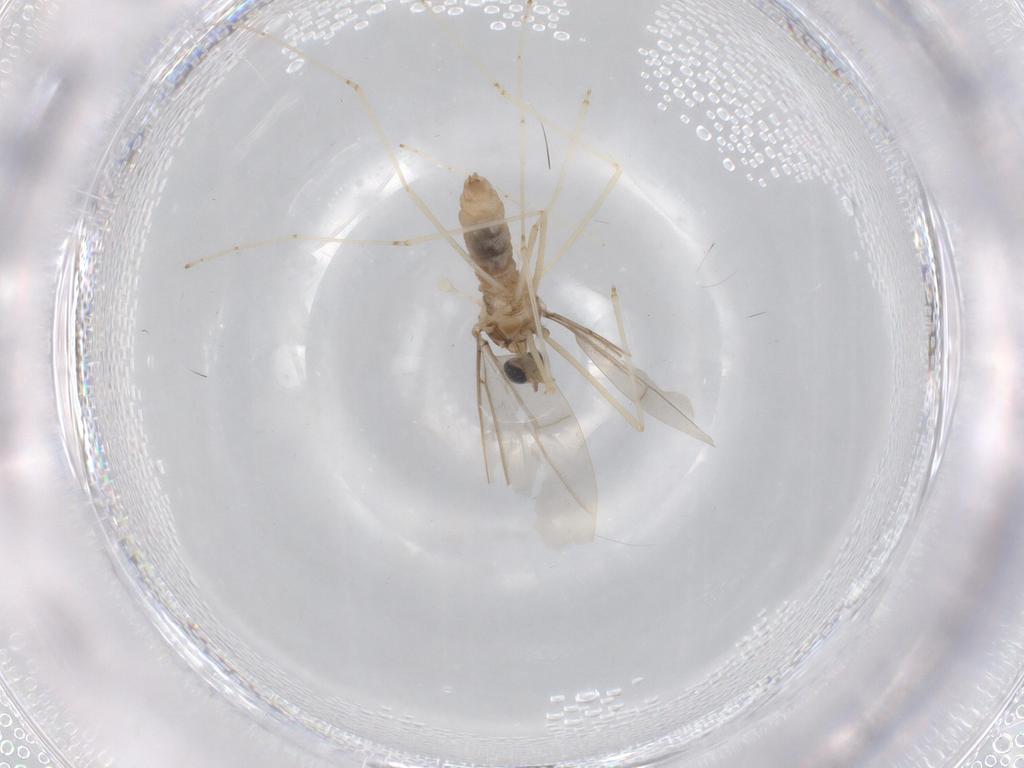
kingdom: Animalia
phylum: Arthropoda
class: Insecta
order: Diptera
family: Cecidomyiidae
